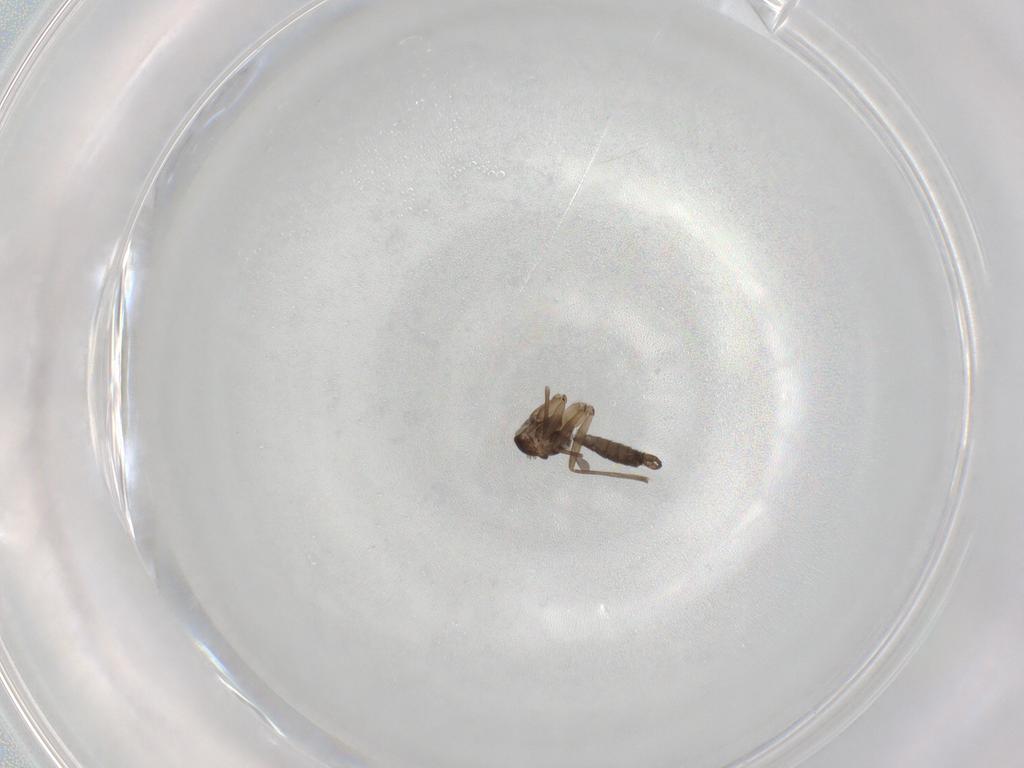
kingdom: Animalia
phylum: Arthropoda
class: Insecta
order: Diptera
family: Sciaridae
